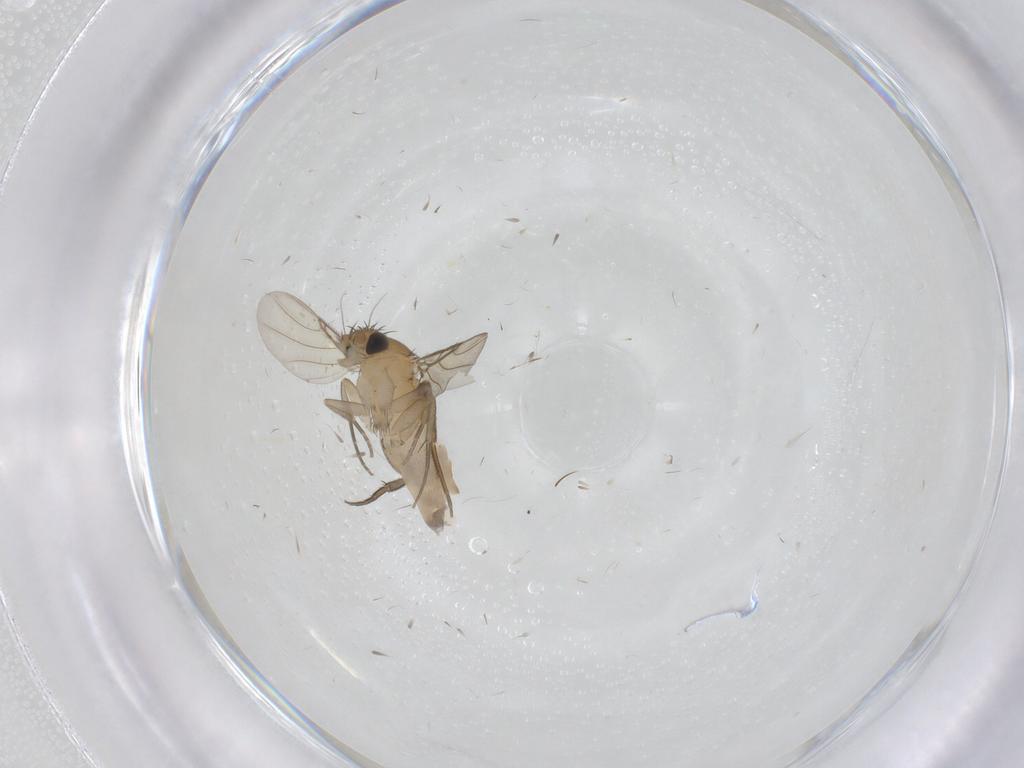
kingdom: Animalia
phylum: Arthropoda
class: Insecta
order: Diptera
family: Phoridae
